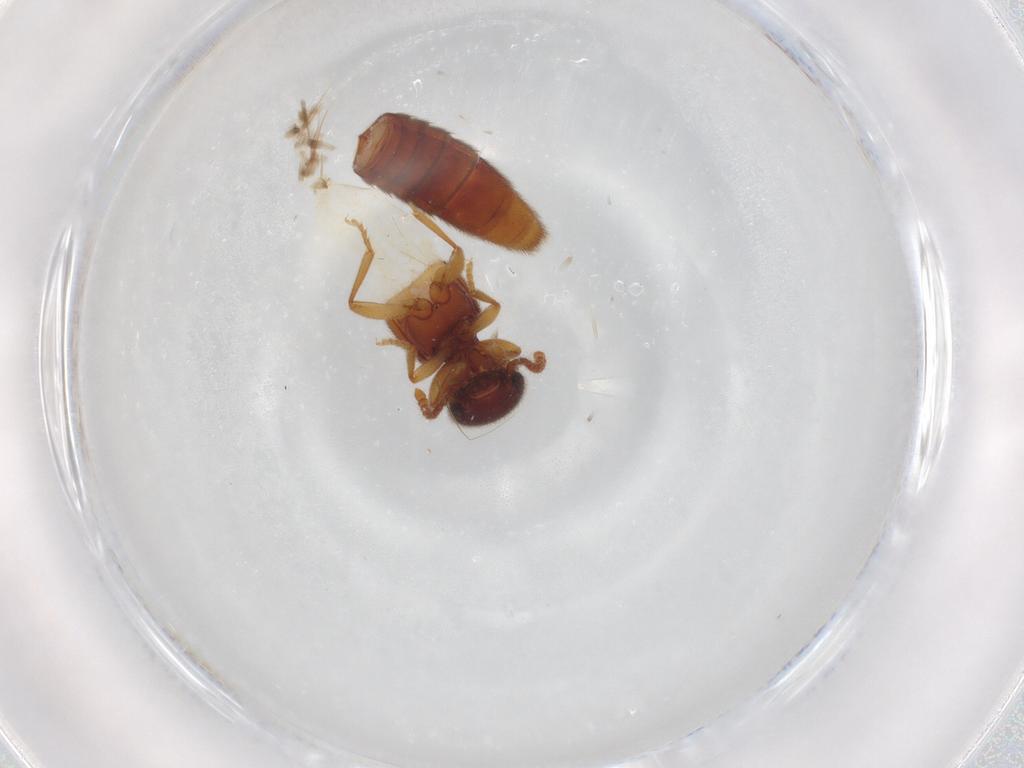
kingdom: Animalia
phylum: Arthropoda
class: Insecta
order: Coleoptera
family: Staphylinidae
